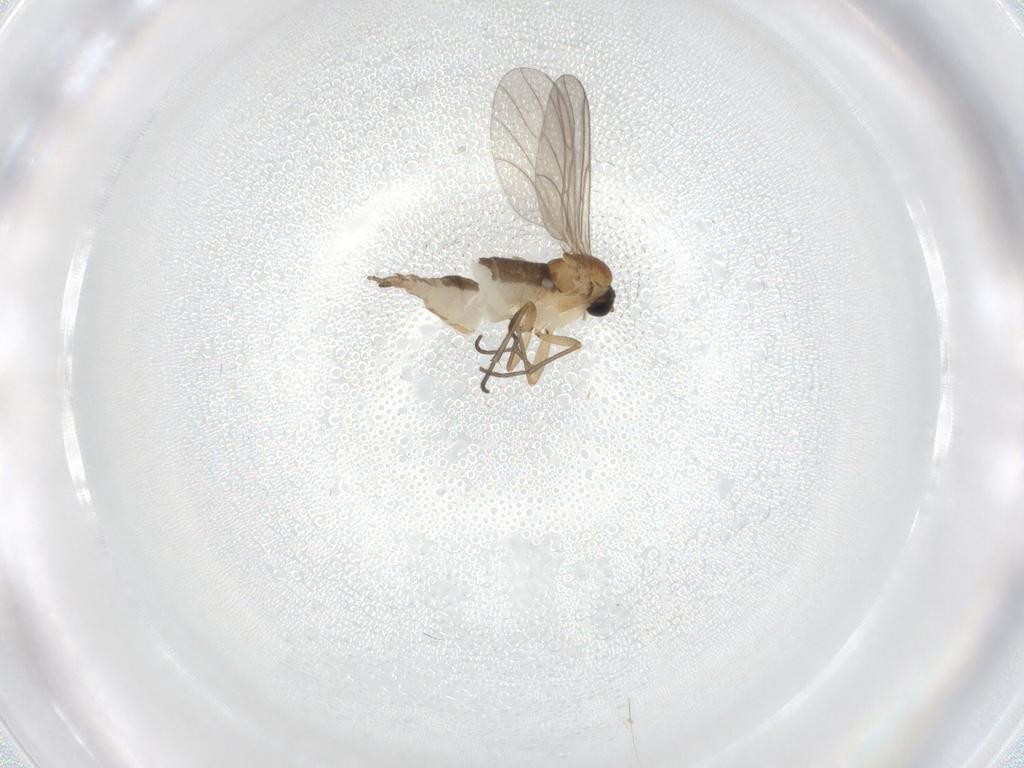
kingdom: Animalia
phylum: Arthropoda
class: Insecta
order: Diptera
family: Sciaridae
